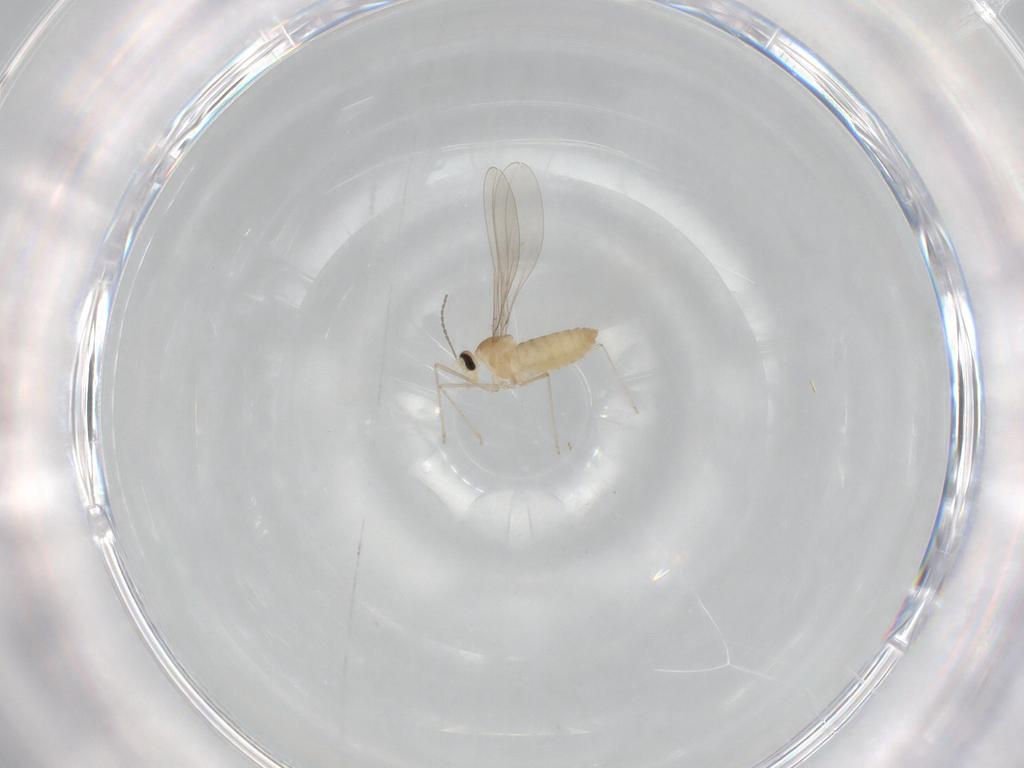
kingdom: Animalia
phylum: Arthropoda
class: Insecta
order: Diptera
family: Cecidomyiidae
